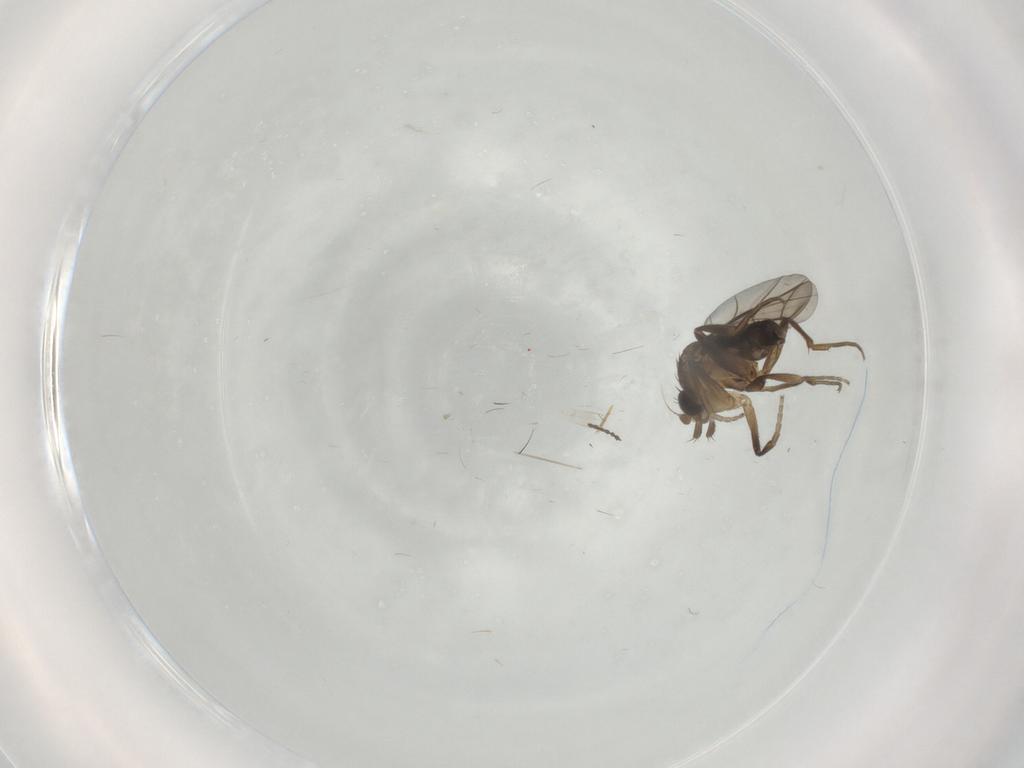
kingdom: Animalia
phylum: Arthropoda
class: Insecta
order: Diptera
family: Phoridae
